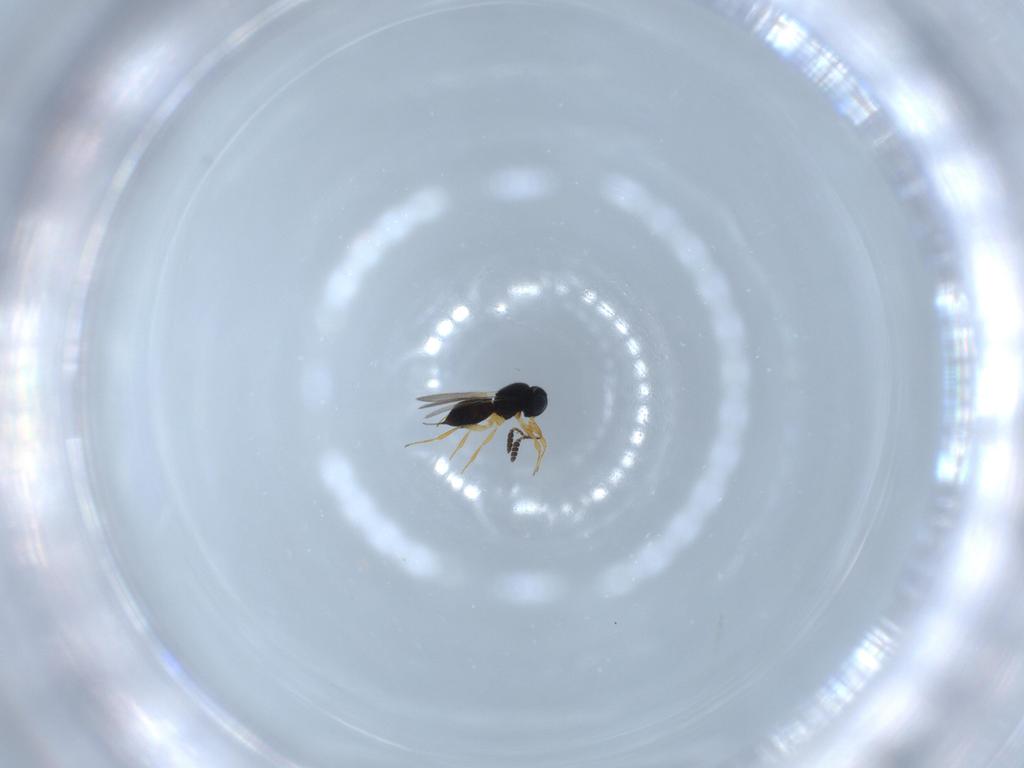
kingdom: Animalia
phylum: Arthropoda
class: Insecta
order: Hymenoptera
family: Scelionidae
